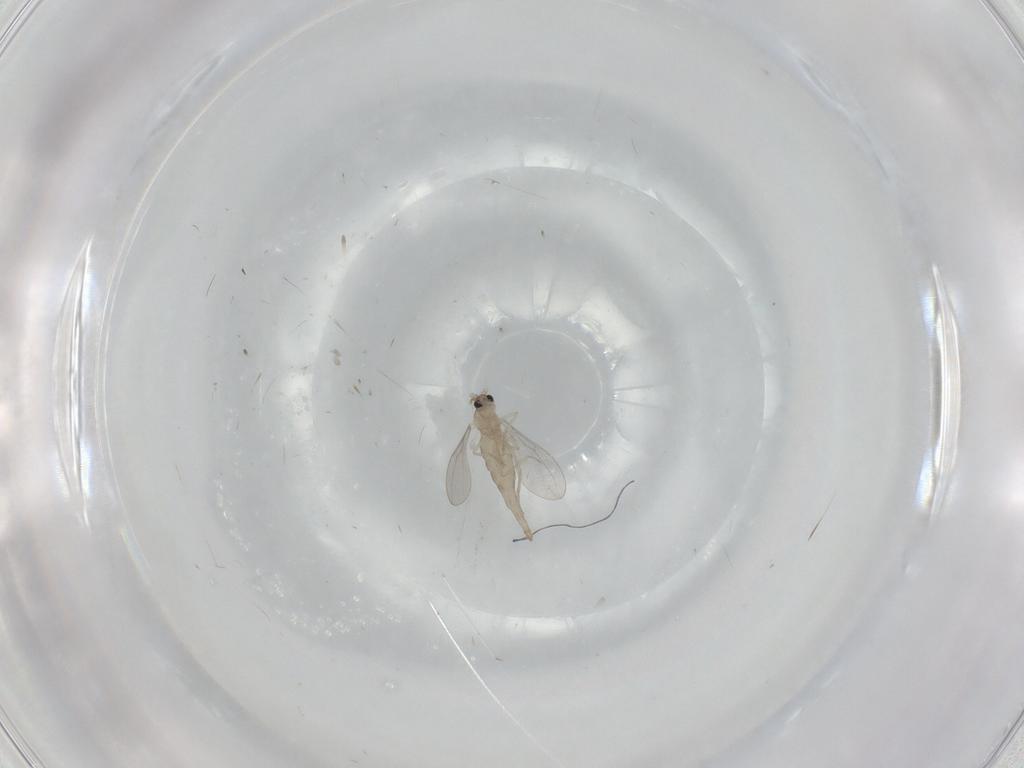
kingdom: Animalia
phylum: Arthropoda
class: Insecta
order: Diptera
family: Cecidomyiidae
